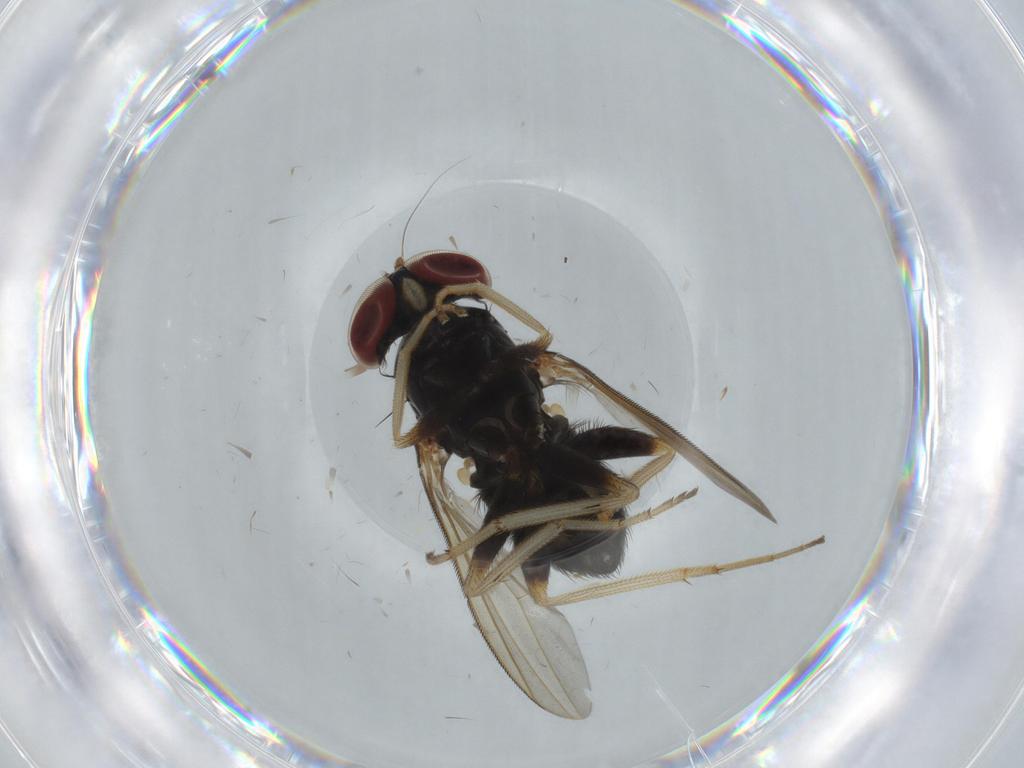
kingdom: Animalia
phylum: Arthropoda
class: Insecta
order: Diptera
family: Dolichopodidae
